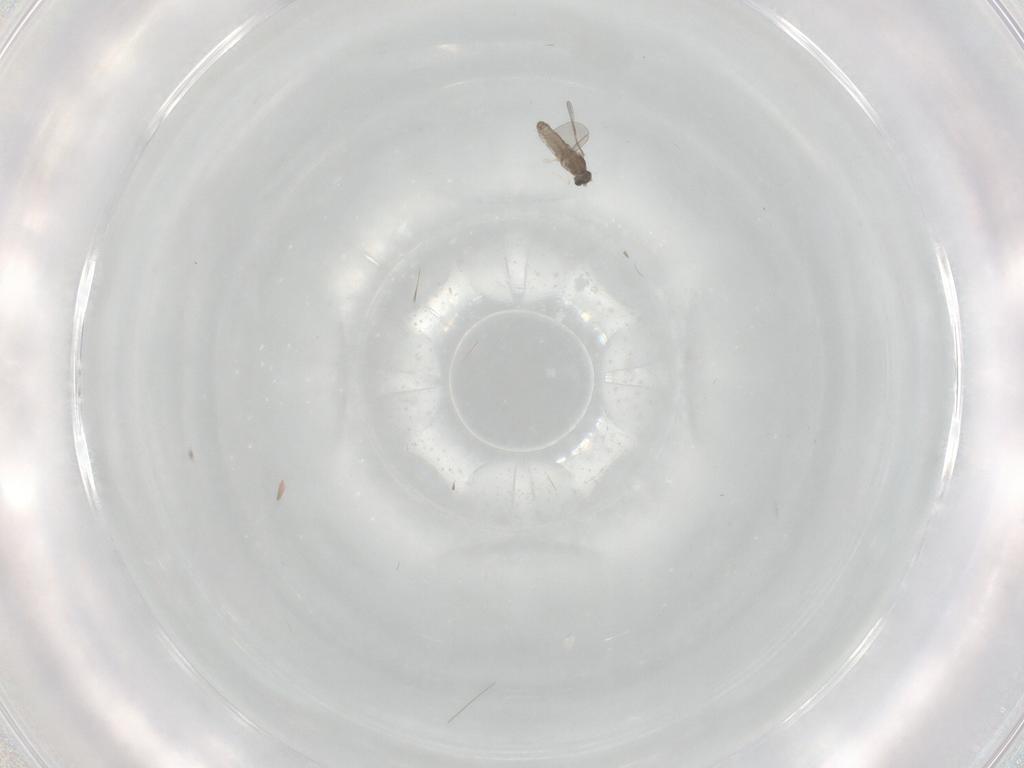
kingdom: Animalia
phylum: Arthropoda
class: Insecta
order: Diptera
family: Cecidomyiidae
